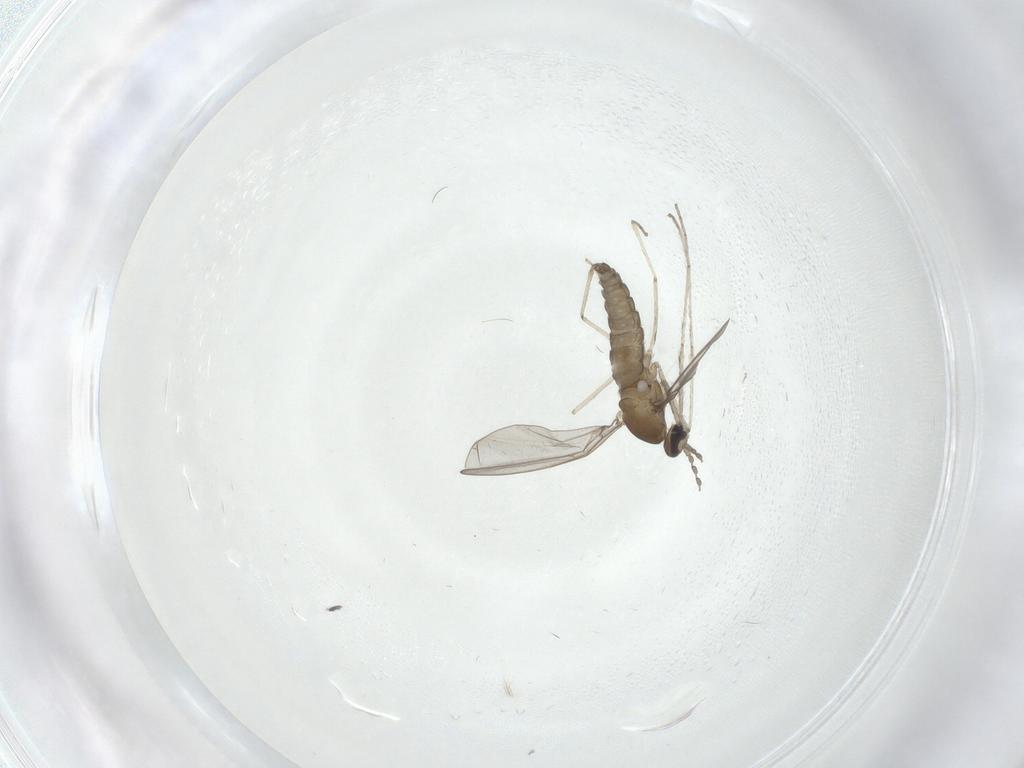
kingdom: Animalia
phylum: Arthropoda
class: Insecta
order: Diptera
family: Cecidomyiidae
